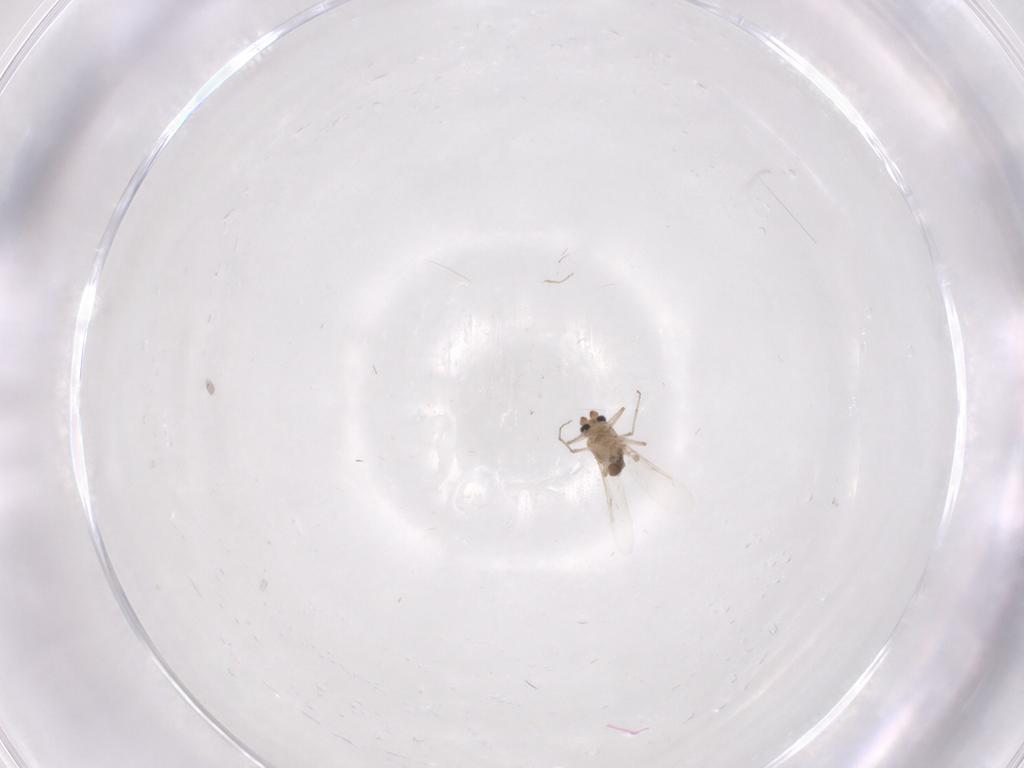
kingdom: Animalia
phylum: Arthropoda
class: Insecta
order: Diptera
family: Ceratopogonidae
